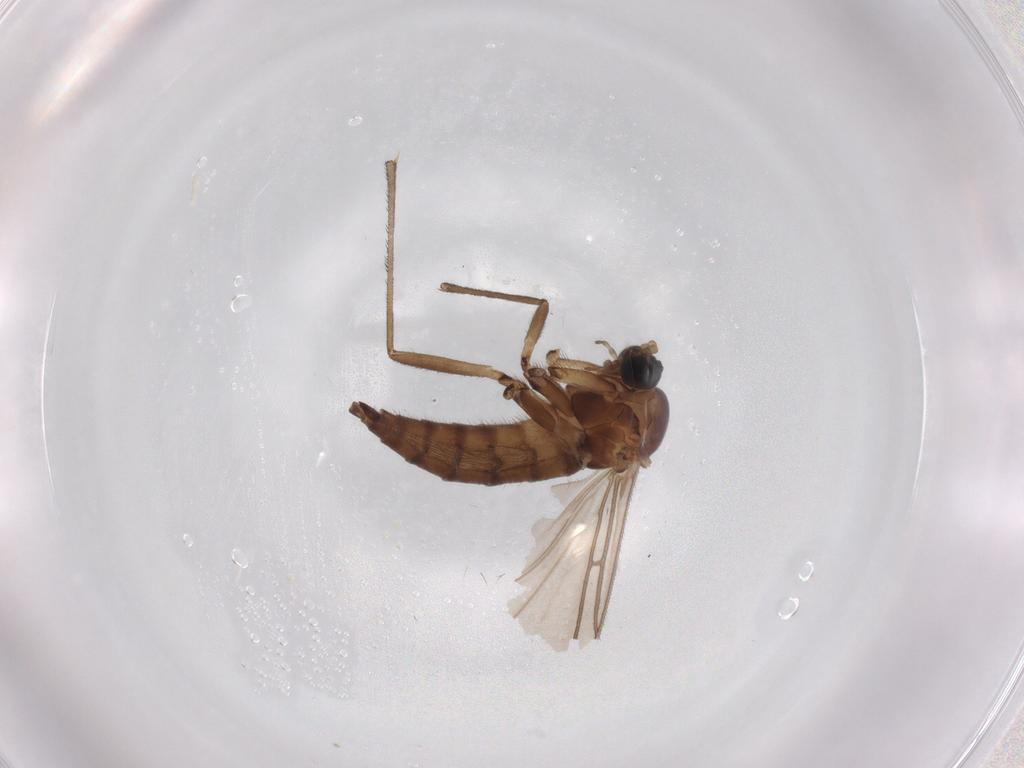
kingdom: Animalia
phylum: Arthropoda
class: Insecta
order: Diptera
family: Sciaridae
